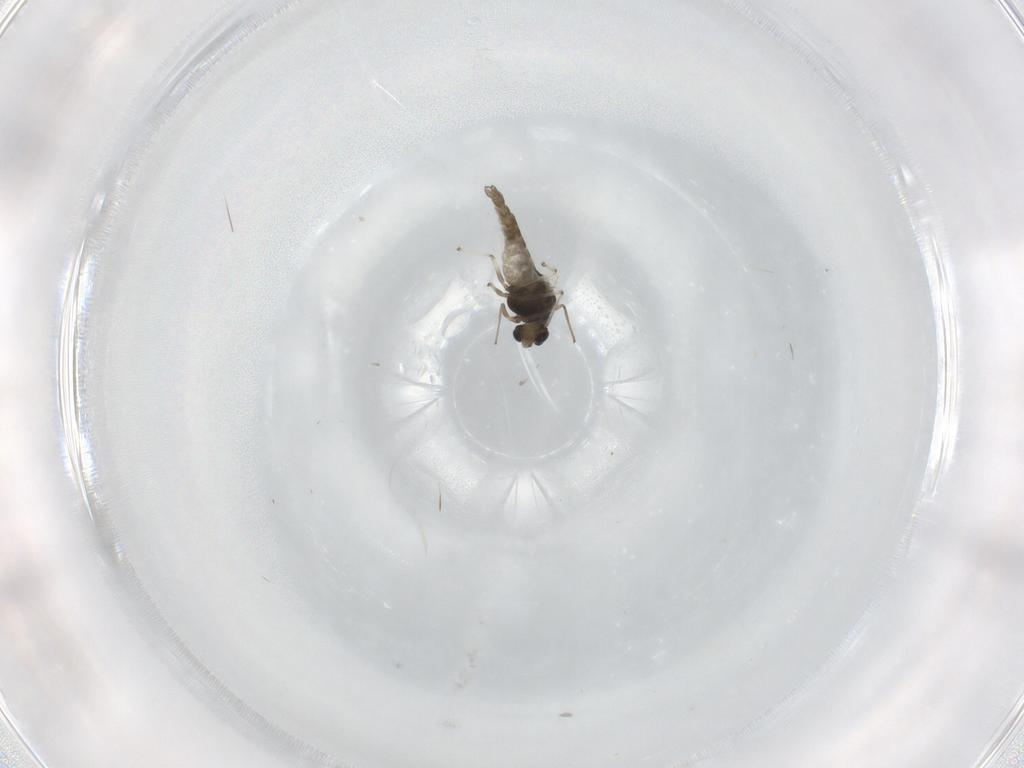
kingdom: Animalia
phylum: Arthropoda
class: Insecta
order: Diptera
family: Chironomidae
